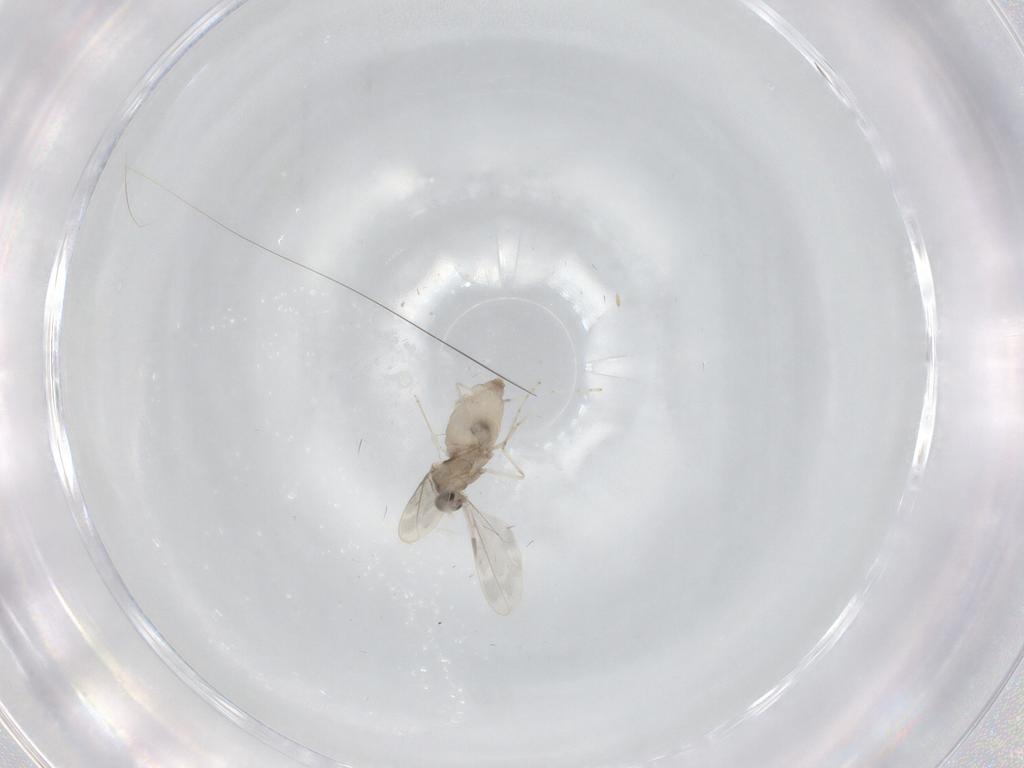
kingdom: Animalia
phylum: Arthropoda
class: Insecta
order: Diptera
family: Cecidomyiidae
